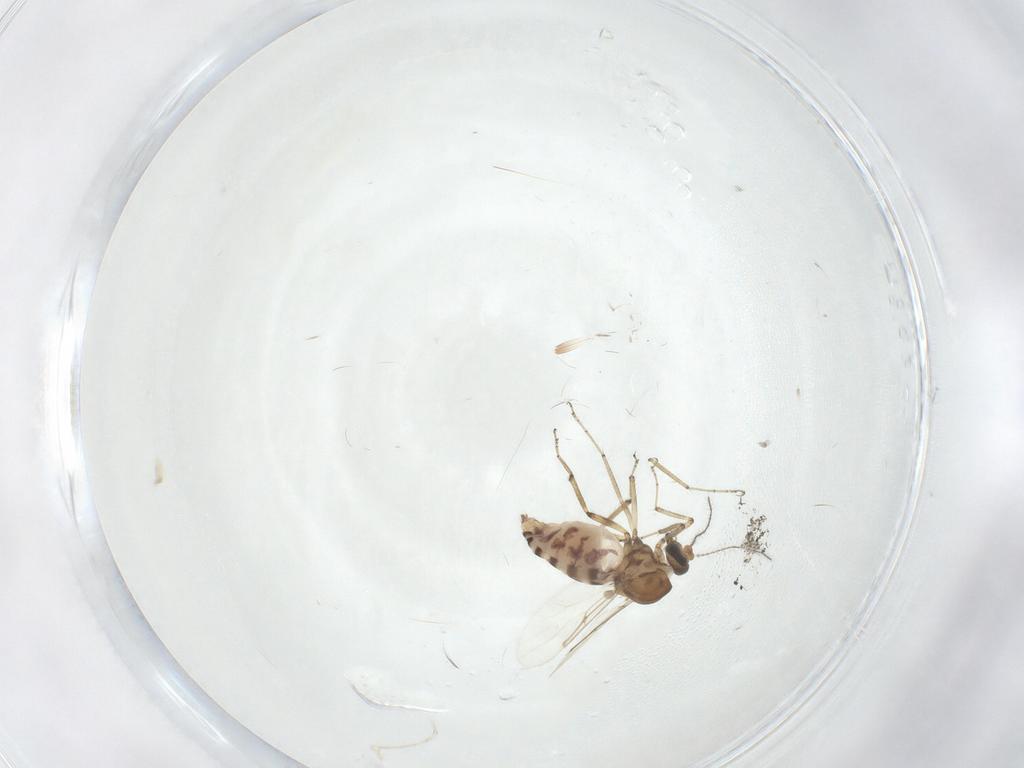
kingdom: Animalia
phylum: Arthropoda
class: Insecta
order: Diptera
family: Ceratopogonidae
